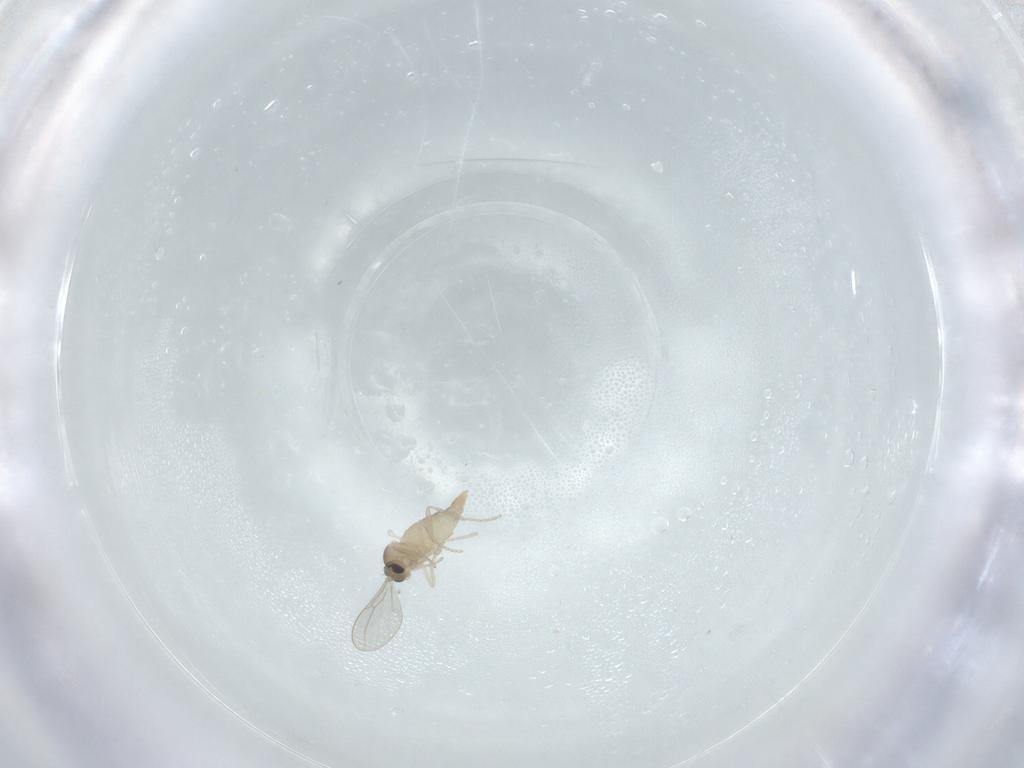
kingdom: Animalia
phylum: Arthropoda
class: Insecta
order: Diptera
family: Cecidomyiidae
